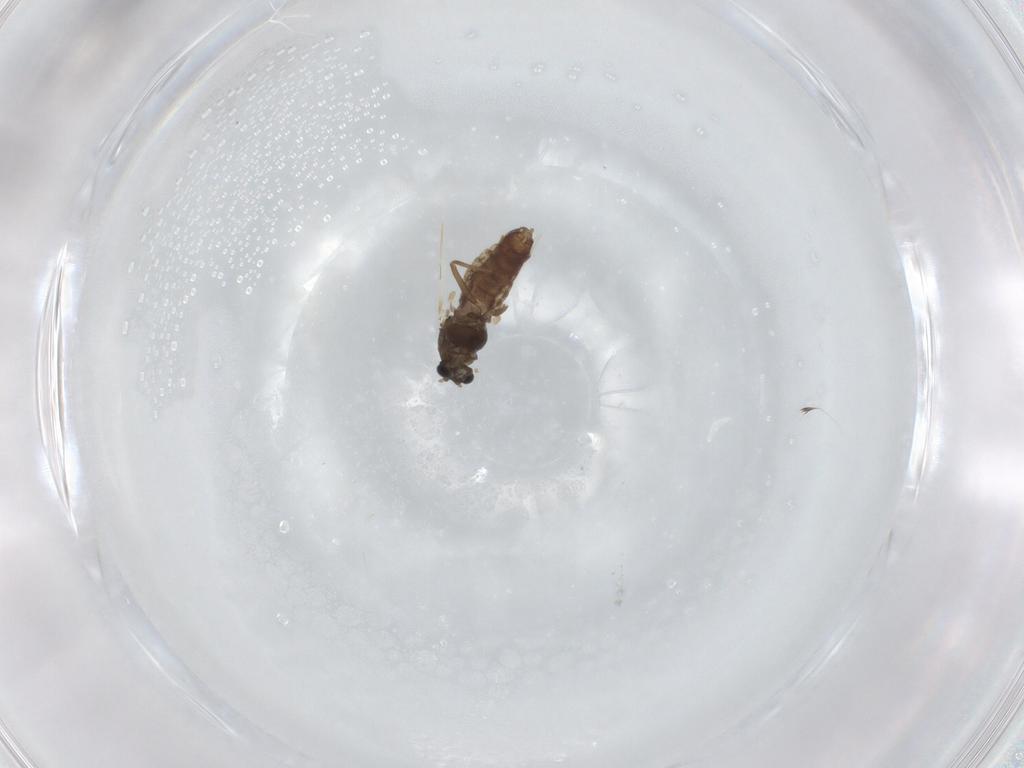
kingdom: Animalia
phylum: Arthropoda
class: Insecta
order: Diptera
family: Chironomidae
